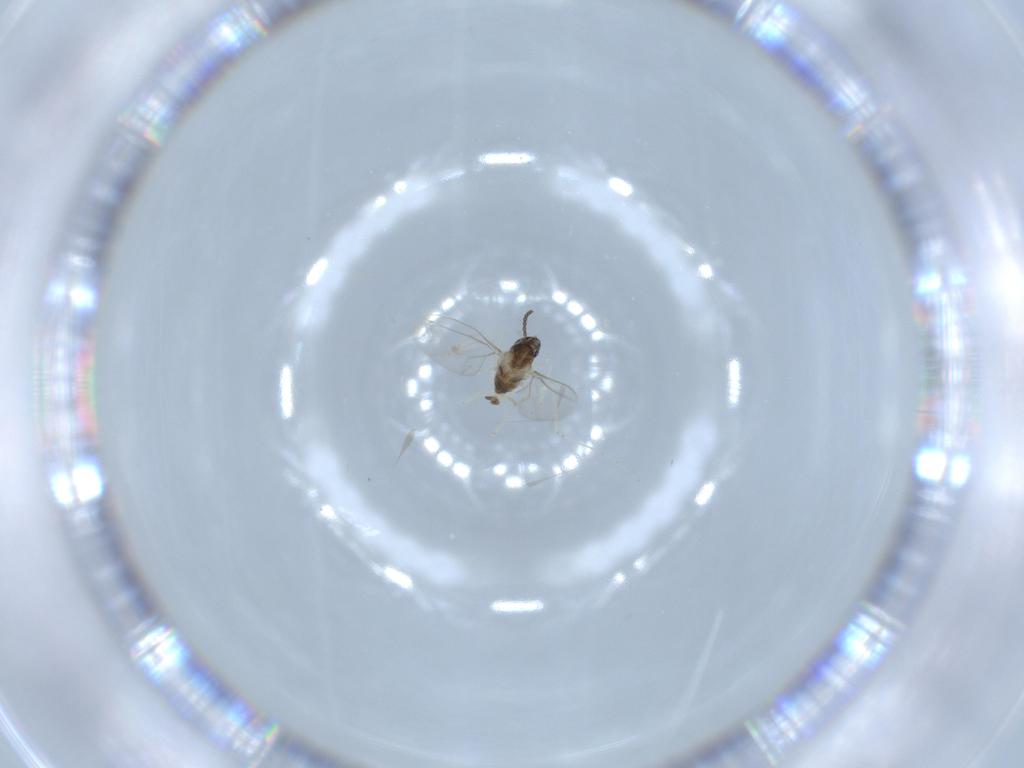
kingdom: Animalia
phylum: Arthropoda
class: Insecta
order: Diptera
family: Cecidomyiidae
